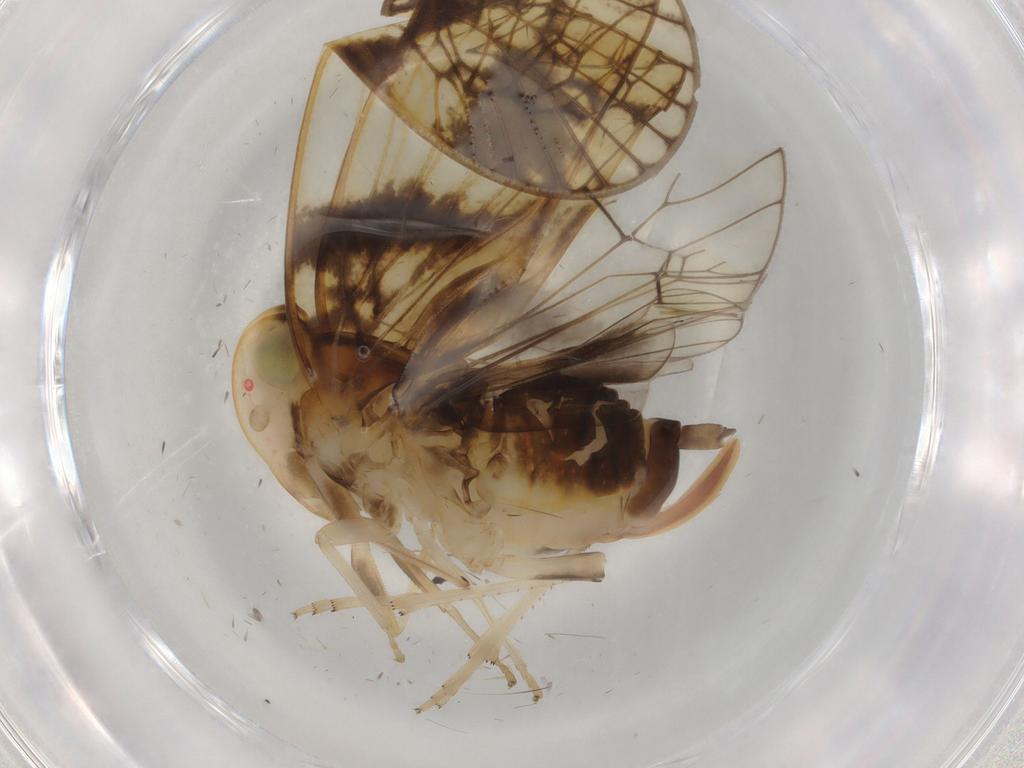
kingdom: Animalia
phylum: Arthropoda
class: Insecta
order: Hemiptera
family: Cixiidae
